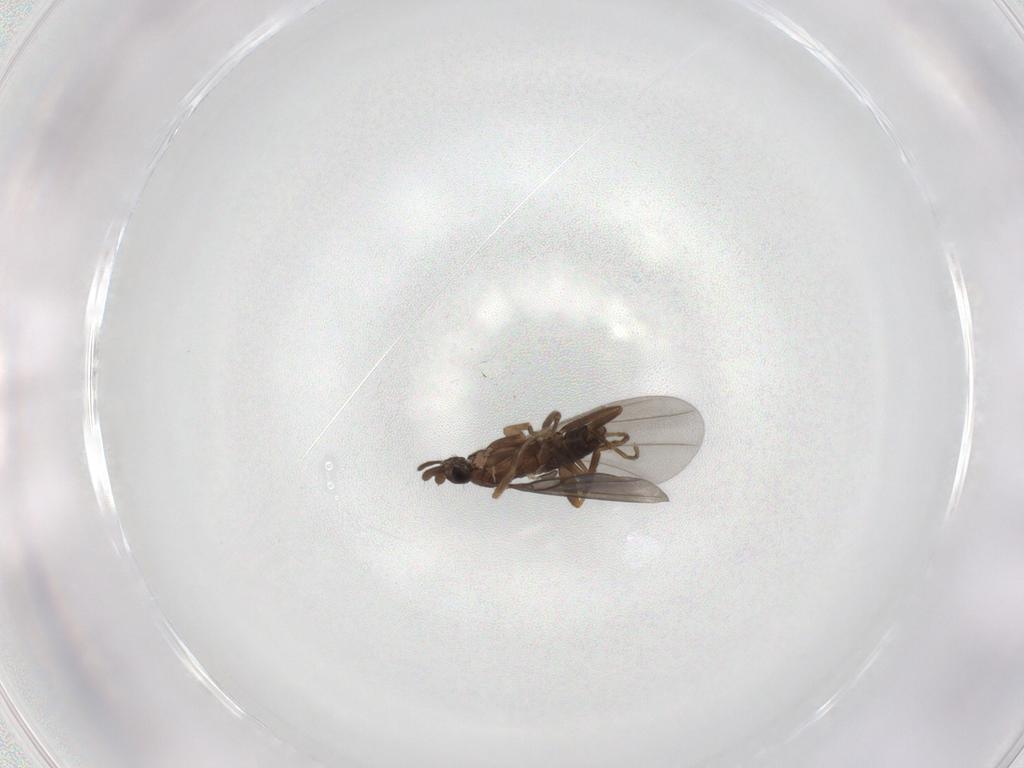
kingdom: Animalia
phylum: Arthropoda
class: Insecta
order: Diptera
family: Phoridae
